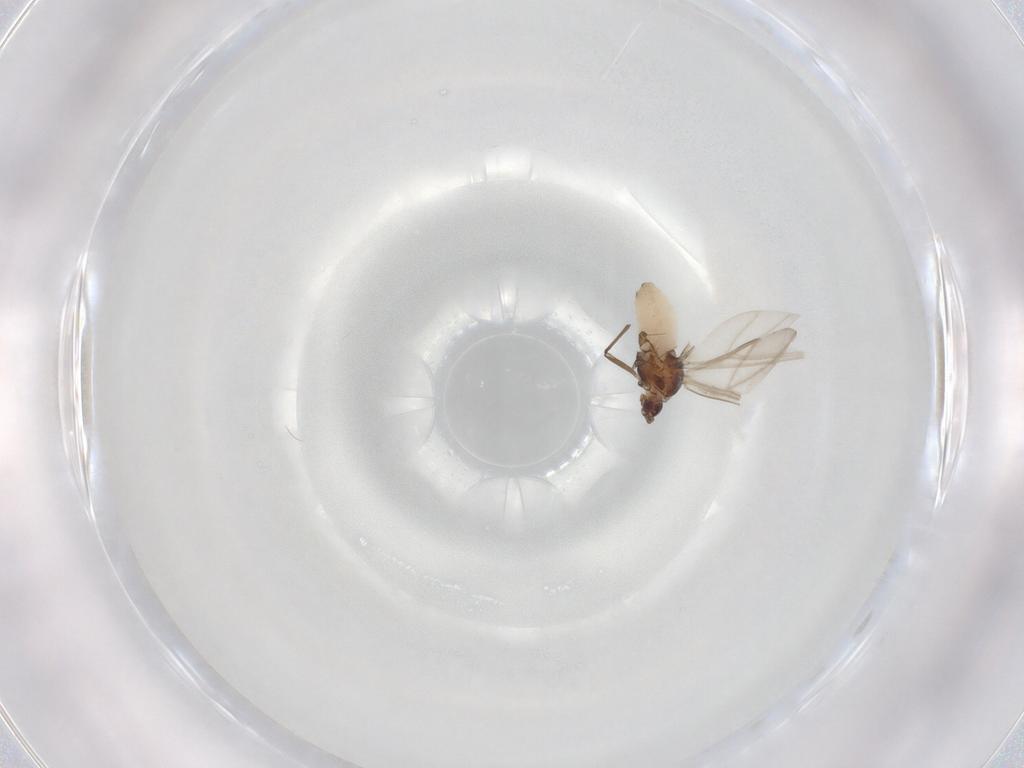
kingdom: Animalia
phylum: Arthropoda
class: Insecta
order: Hemiptera
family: Aphididae
